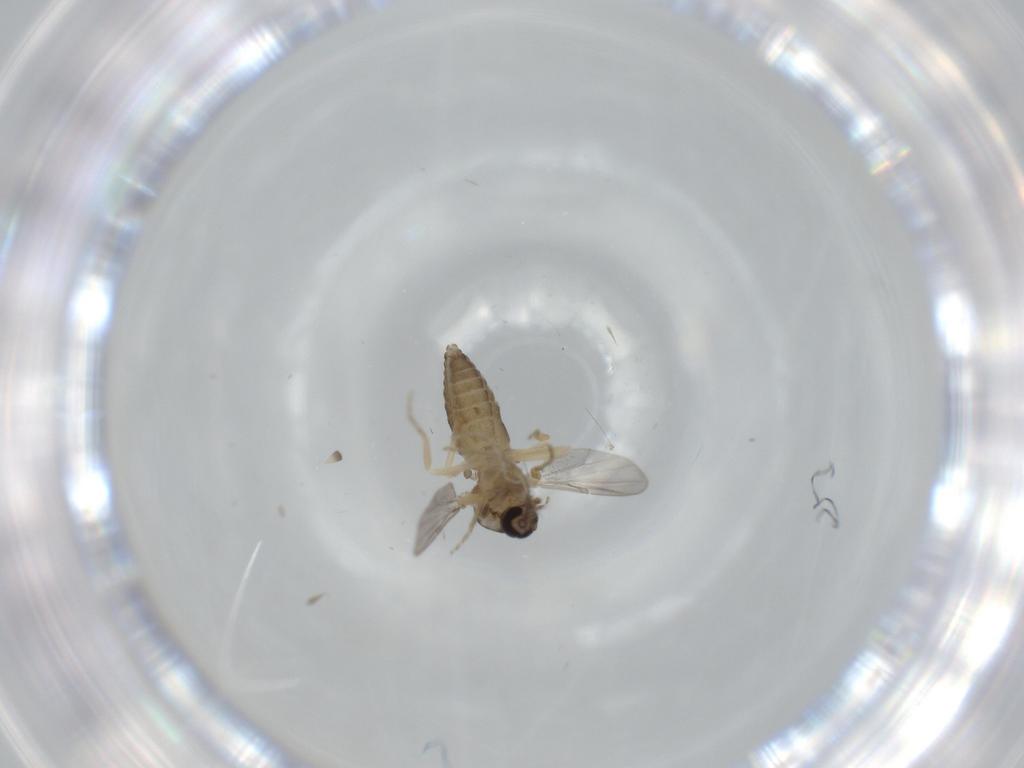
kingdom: Animalia
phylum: Arthropoda
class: Insecta
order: Diptera
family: Ceratopogonidae
